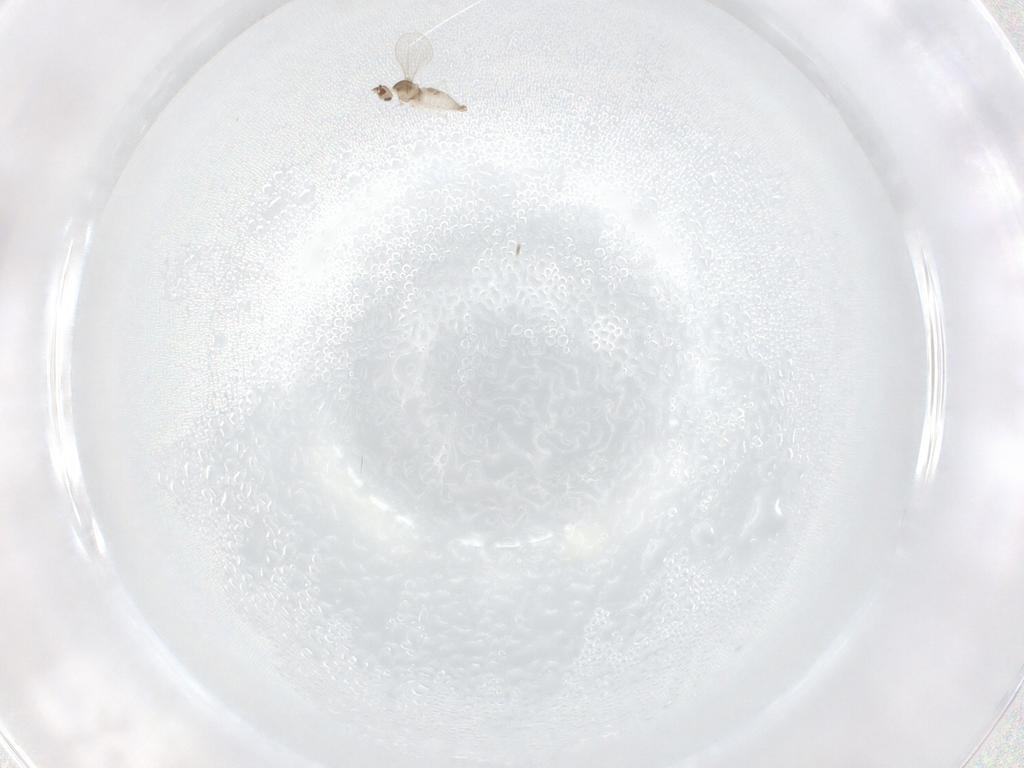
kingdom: Animalia
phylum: Arthropoda
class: Insecta
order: Diptera
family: Cecidomyiidae
